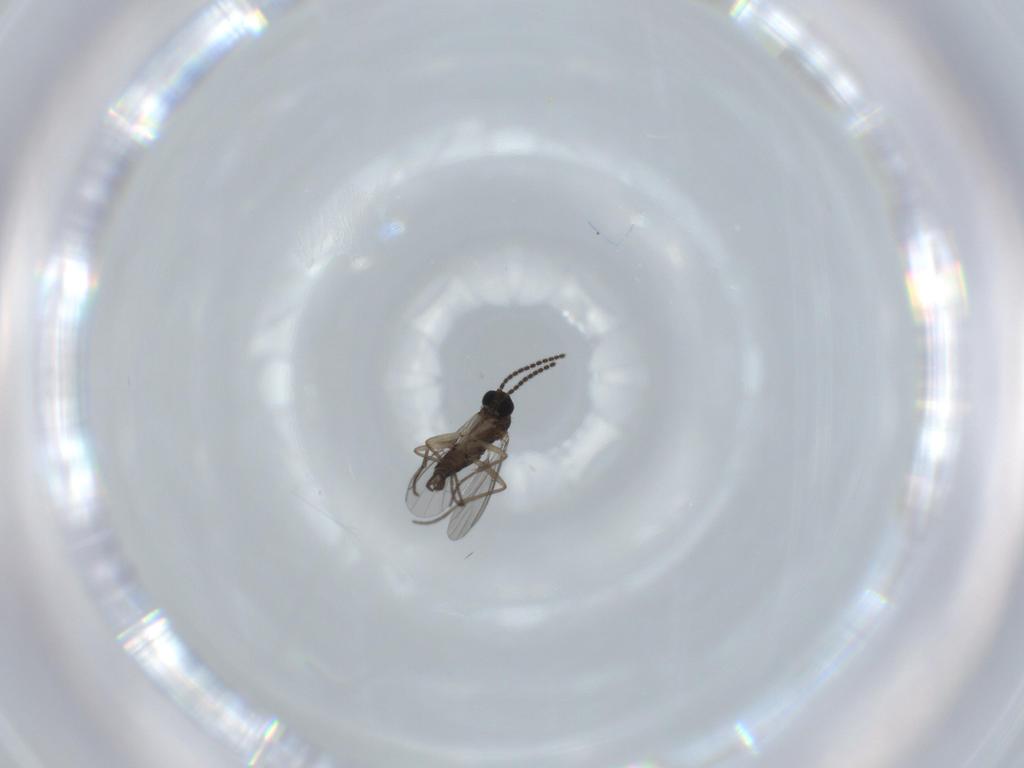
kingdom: Animalia
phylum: Arthropoda
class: Insecta
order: Diptera
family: Sciaridae
